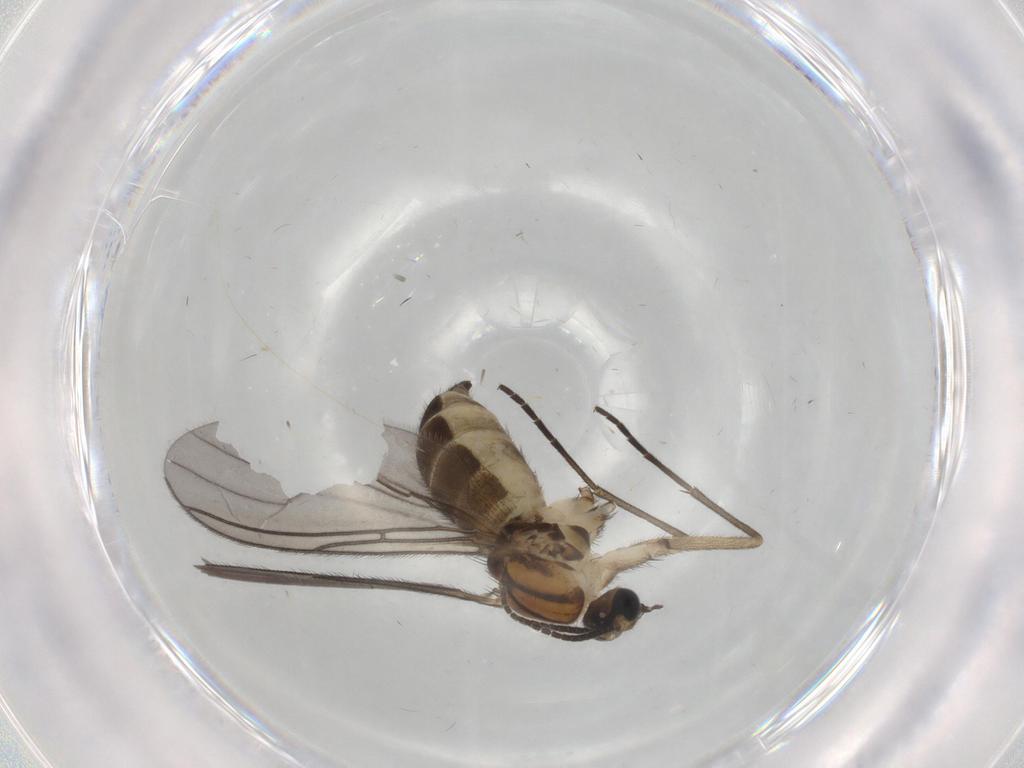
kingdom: Animalia
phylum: Arthropoda
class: Insecta
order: Diptera
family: Sciaridae
